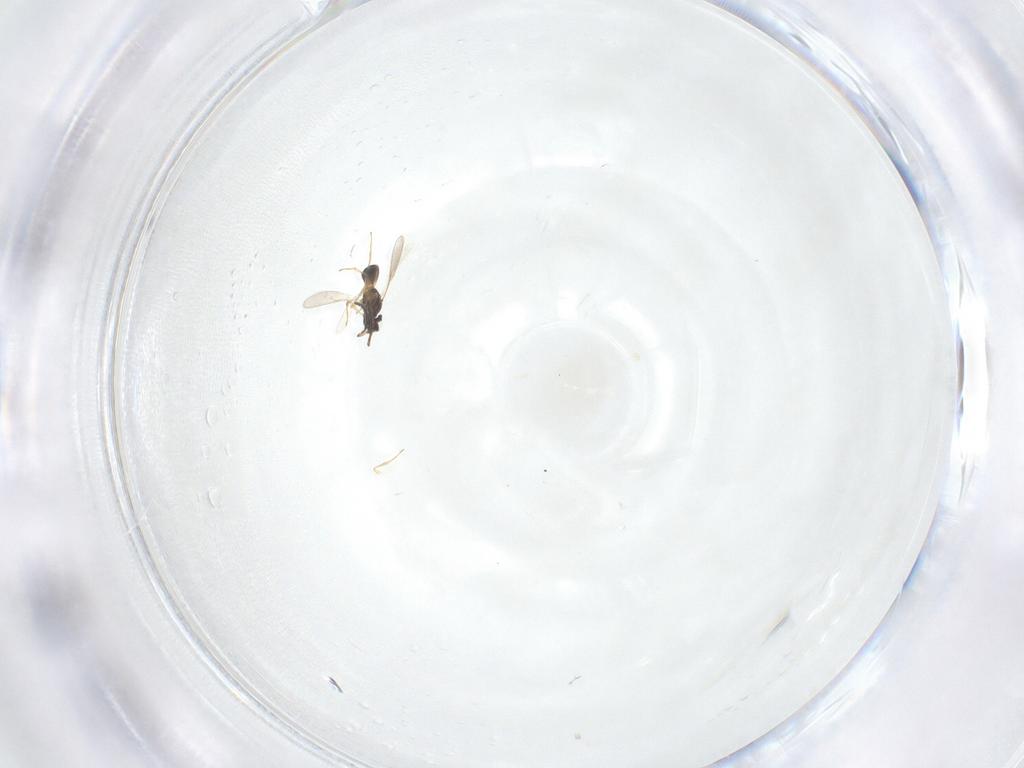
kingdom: Animalia
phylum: Arthropoda
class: Insecta
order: Hymenoptera
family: Scelionidae
